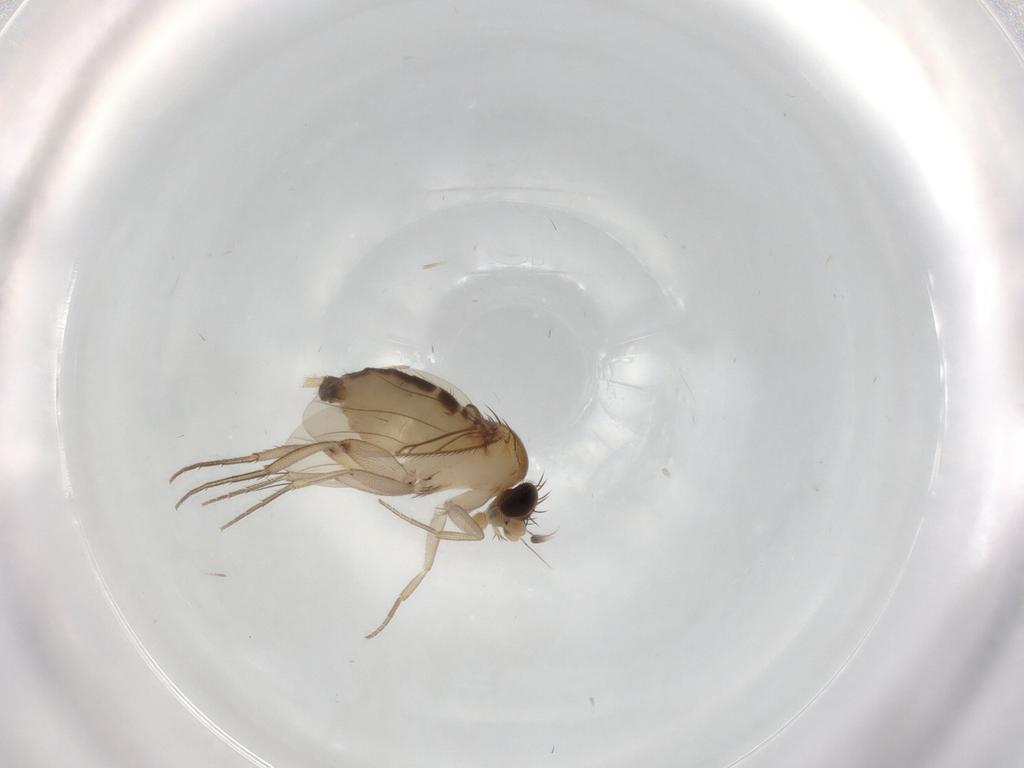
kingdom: Animalia
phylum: Arthropoda
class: Insecta
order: Diptera
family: Phoridae
